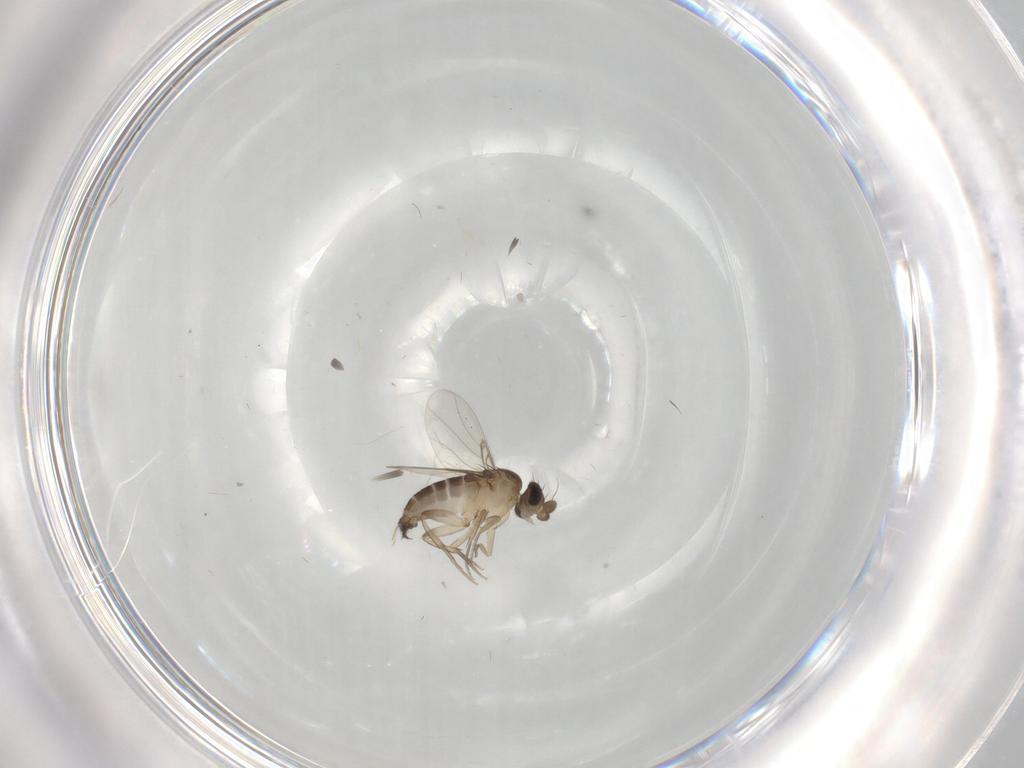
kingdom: Animalia
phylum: Arthropoda
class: Insecta
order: Diptera
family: Phoridae
